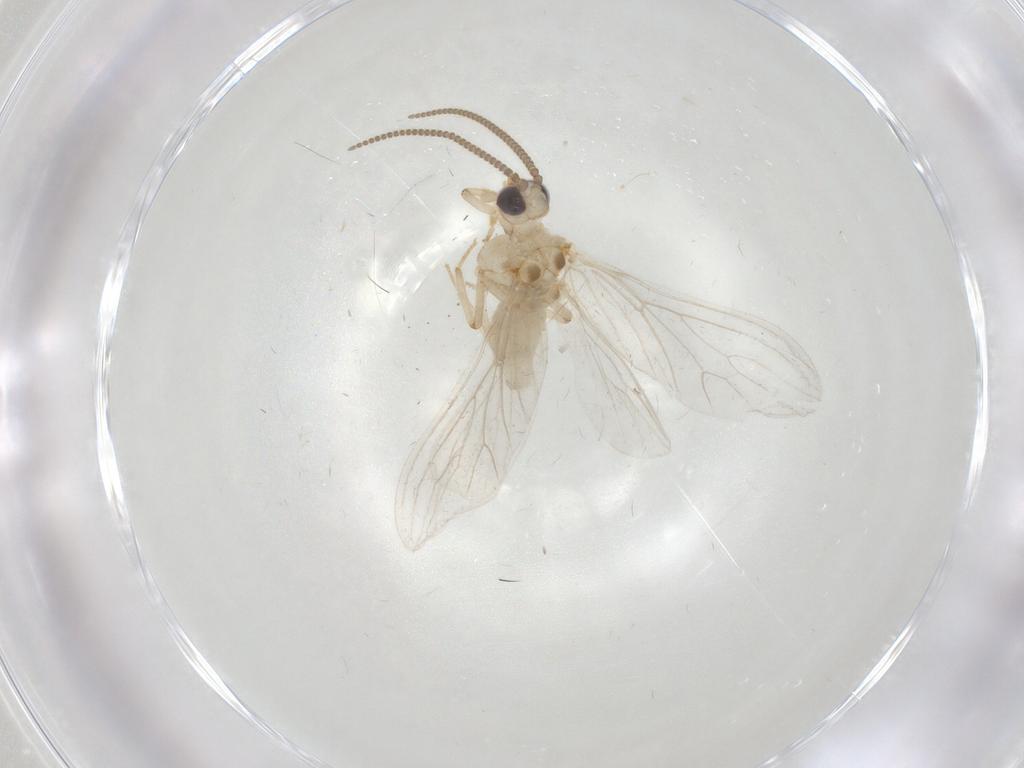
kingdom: Animalia
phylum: Arthropoda
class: Insecta
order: Neuroptera
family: Coniopterygidae
